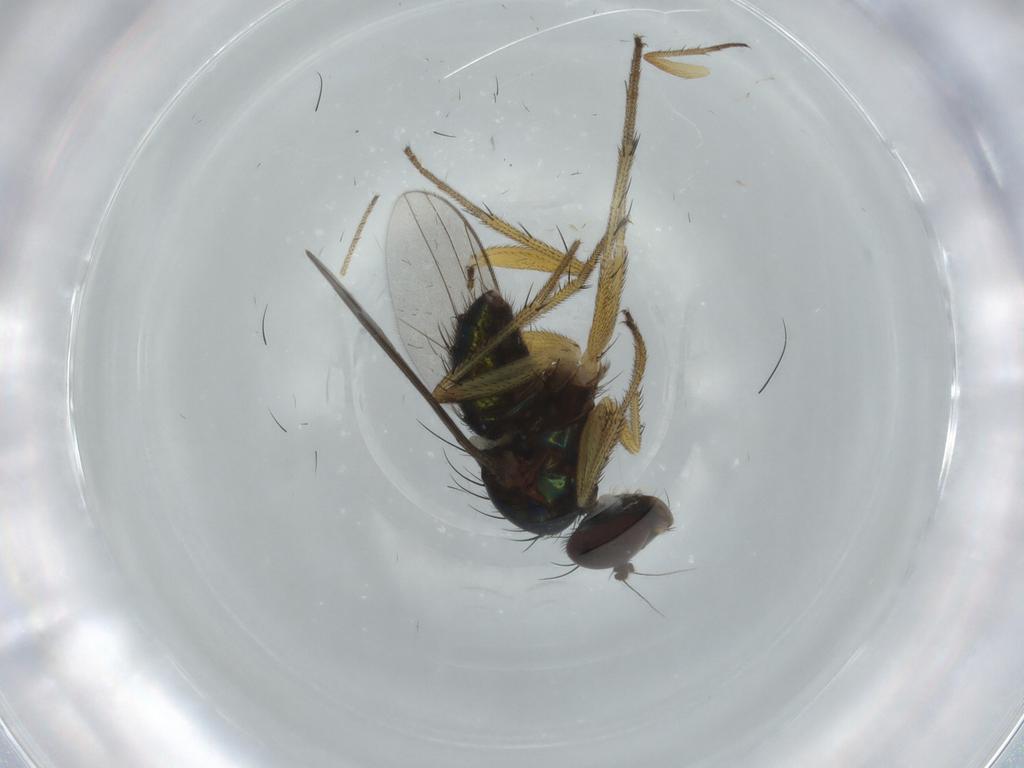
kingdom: Animalia
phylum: Arthropoda
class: Insecta
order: Diptera
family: Dolichopodidae
